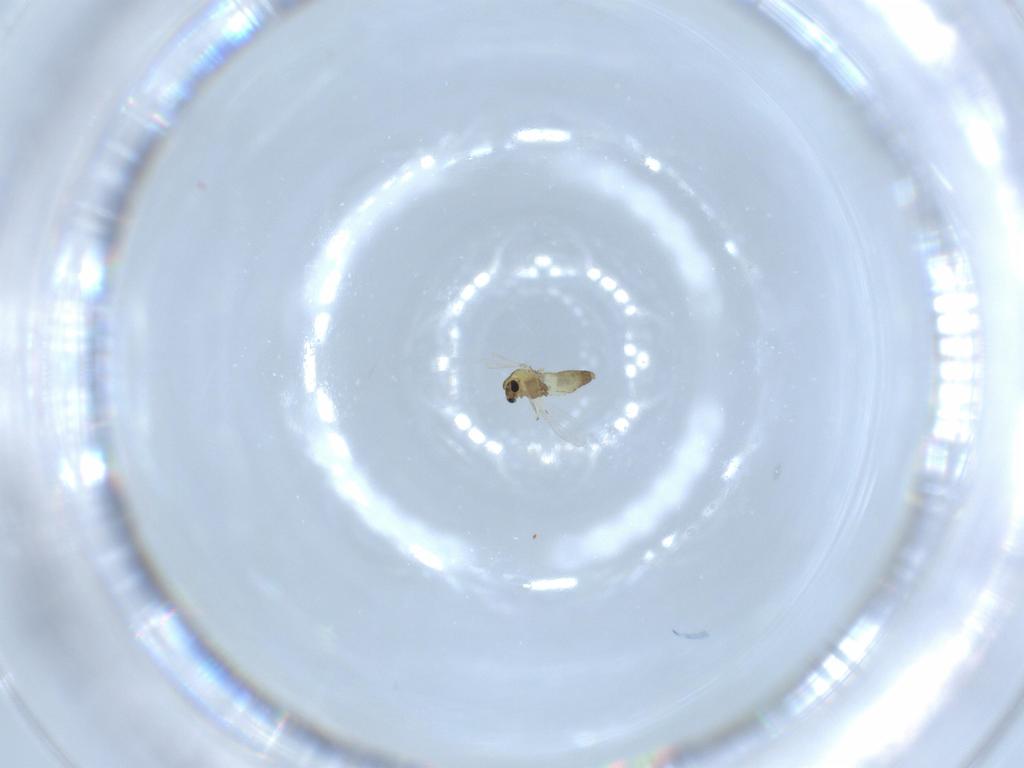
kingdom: Animalia
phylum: Arthropoda
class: Insecta
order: Diptera
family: Chironomidae
